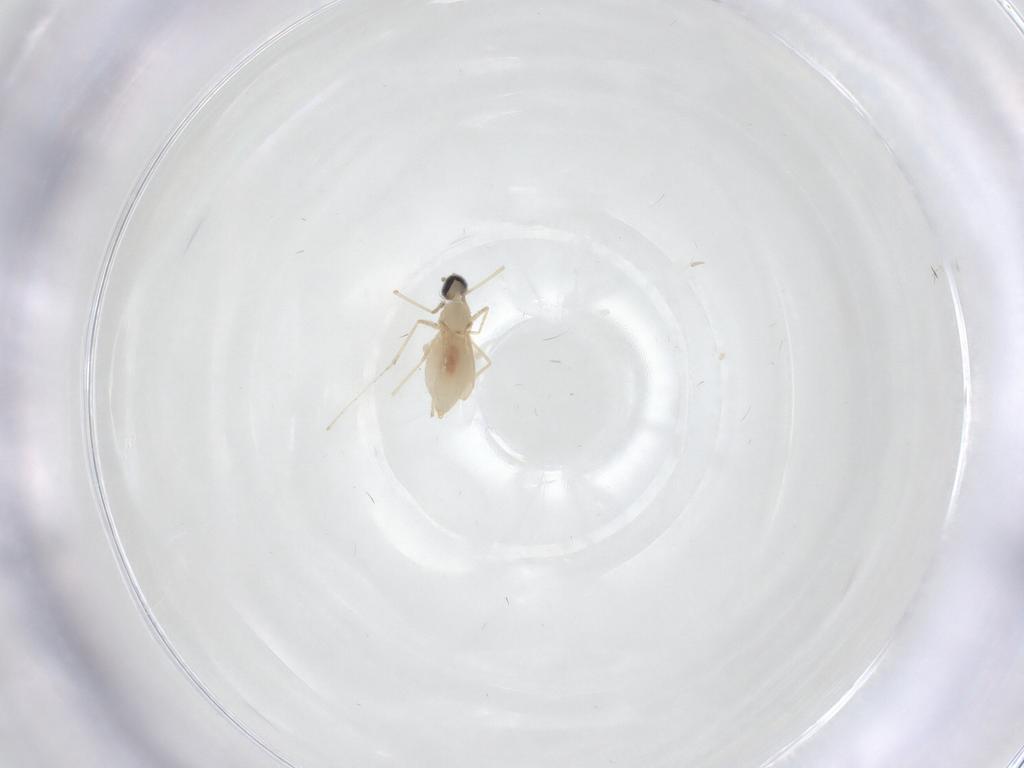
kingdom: Animalia
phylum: Arthropoda
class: Insecta
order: Diptera
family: Cecidomyiidae
